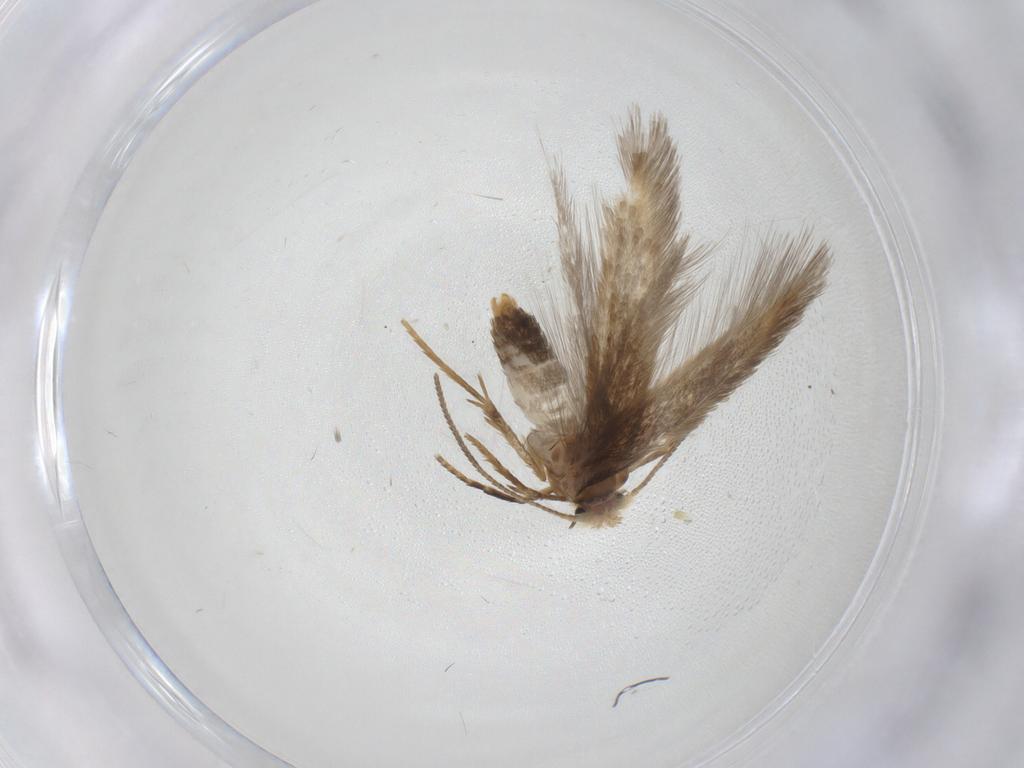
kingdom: Animalia
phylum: Arthropoda
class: Insecta
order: Lepidoptera
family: Nepticulidae
